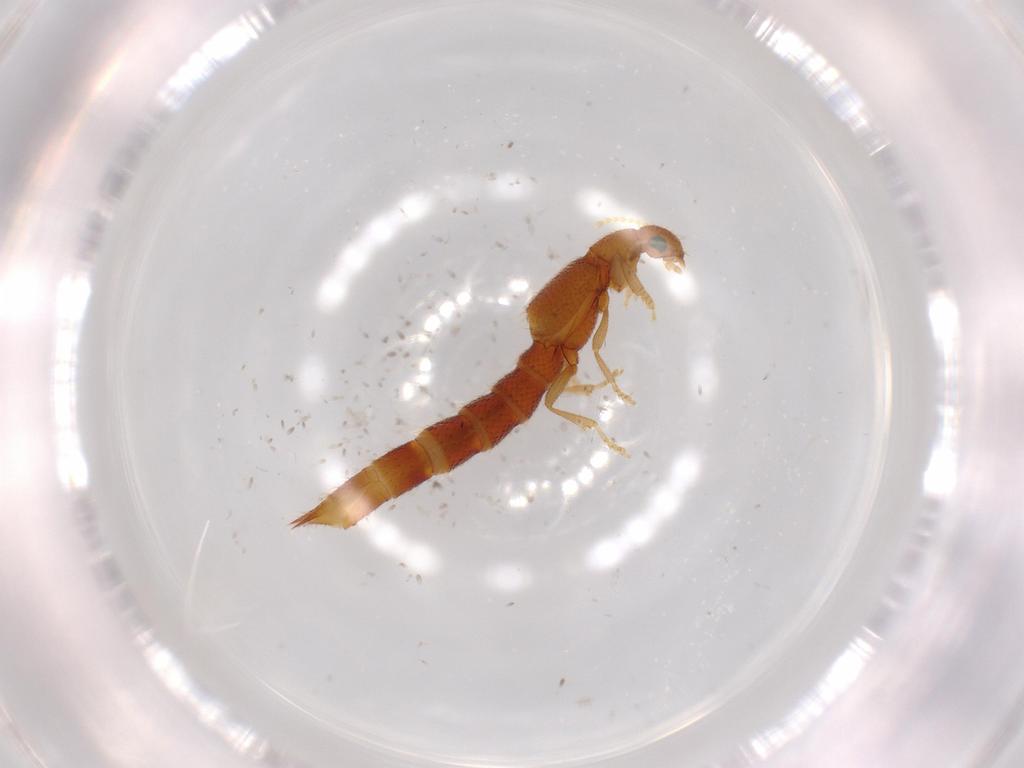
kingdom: Animalia
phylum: Arthropoda
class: Insecta
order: Coleoptera
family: Staphylinidae
